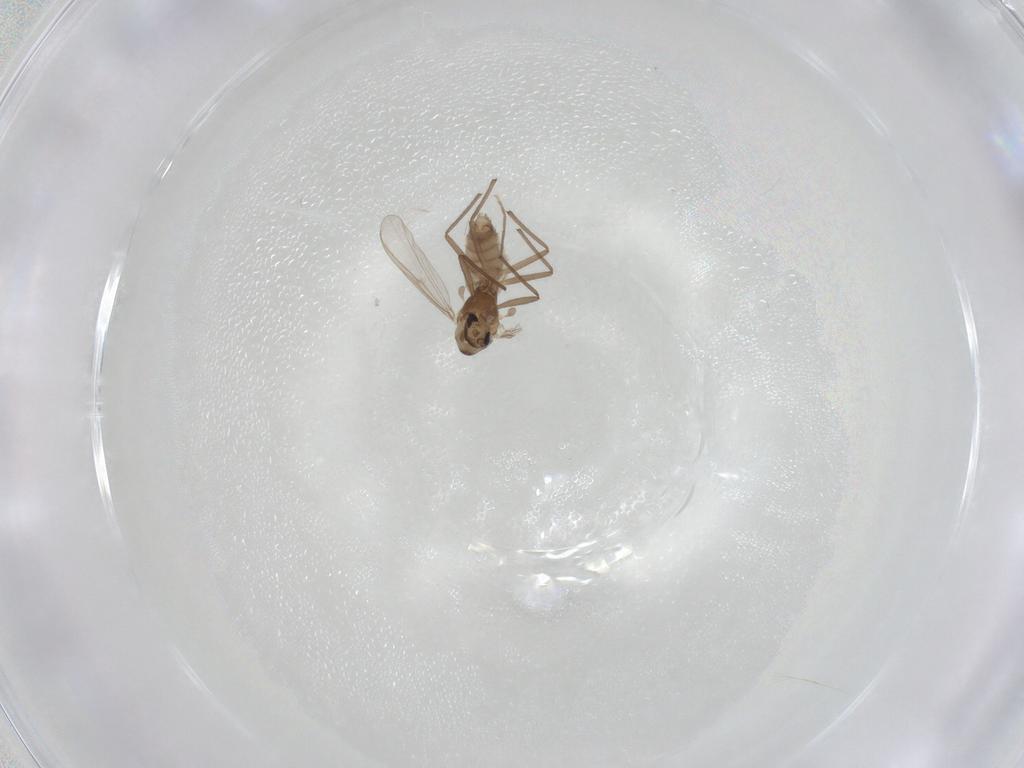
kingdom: Animalia
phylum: Arthropoda
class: Insecta
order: Diptera
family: Chironomidae
